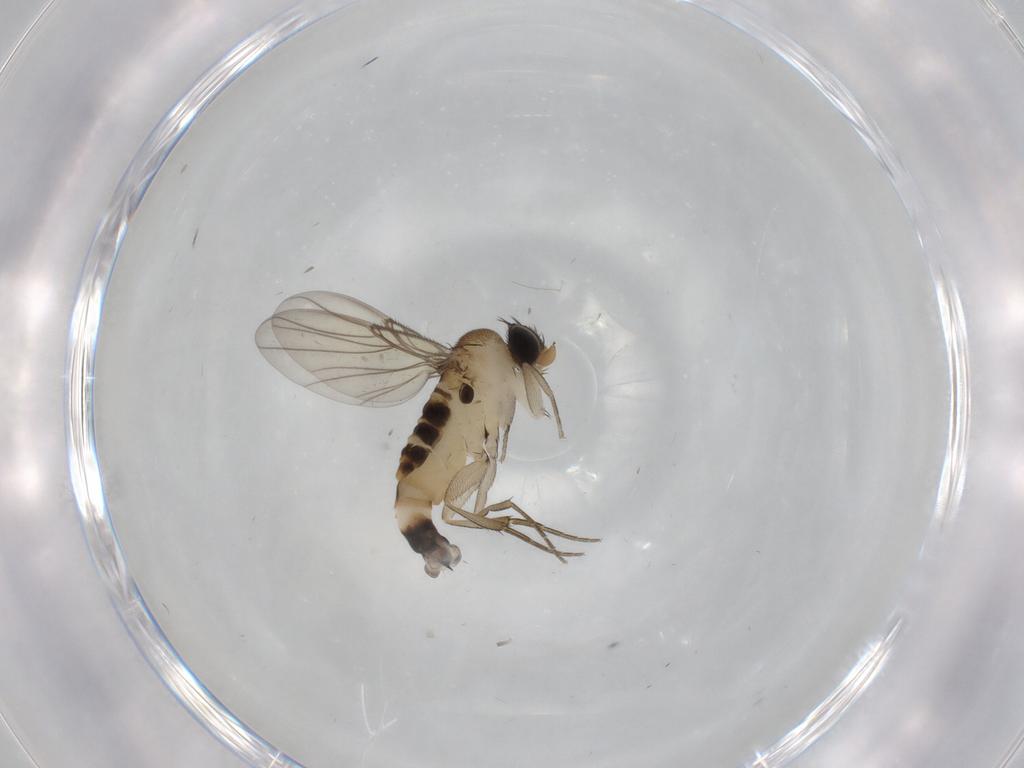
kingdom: Animalia
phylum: Arthropoda
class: Insecta
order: Diptera
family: Phoridae
